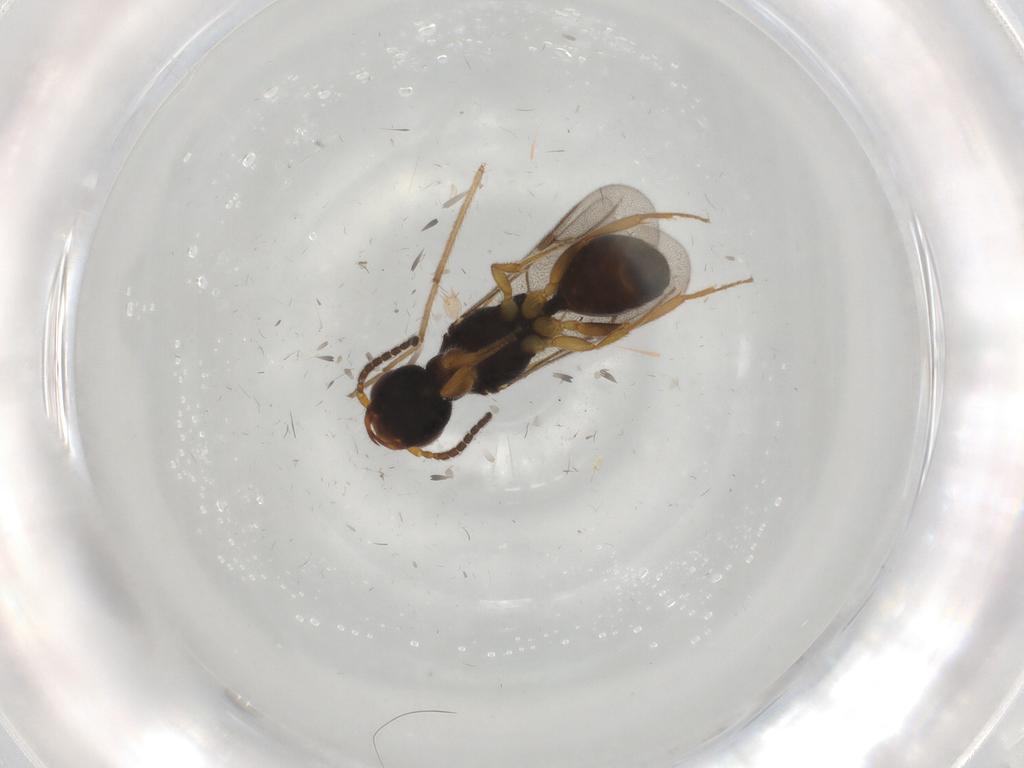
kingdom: Animalia
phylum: Arthropoda
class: Insecta
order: Hymenoptera
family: Bethylidae
